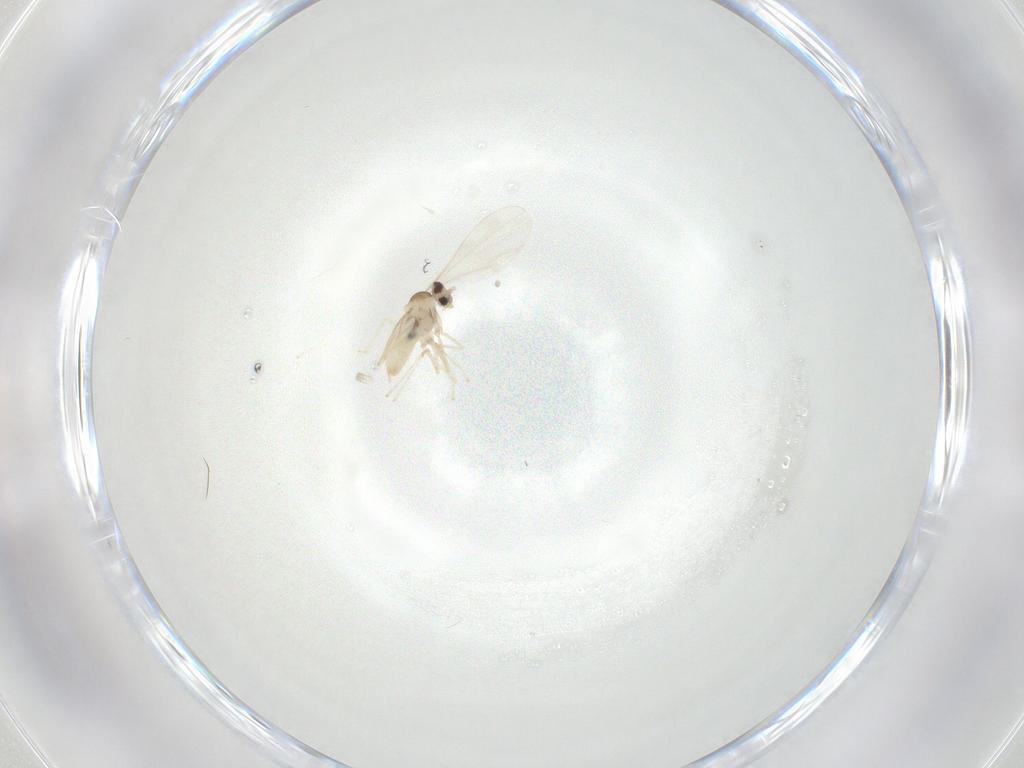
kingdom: Animalia
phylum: Arthropoda
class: Insecta
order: Diptera
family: Cecidomyiidae
